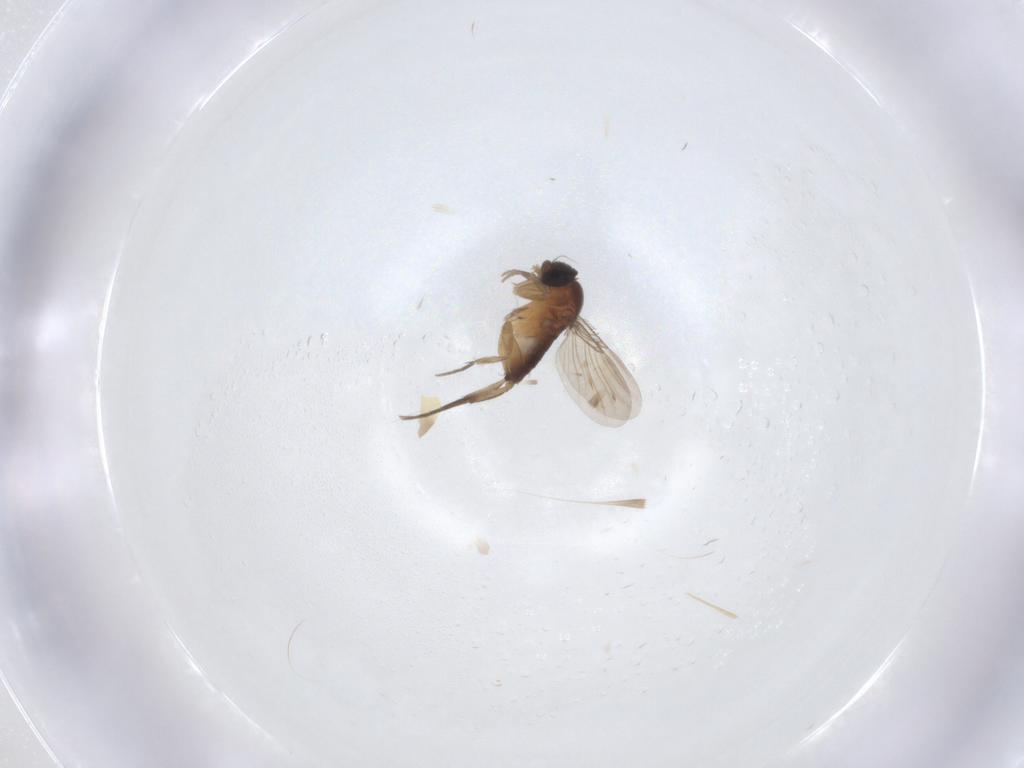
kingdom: Animalia
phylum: Arthropoda
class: Insecta
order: Diptera
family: Phoridae
